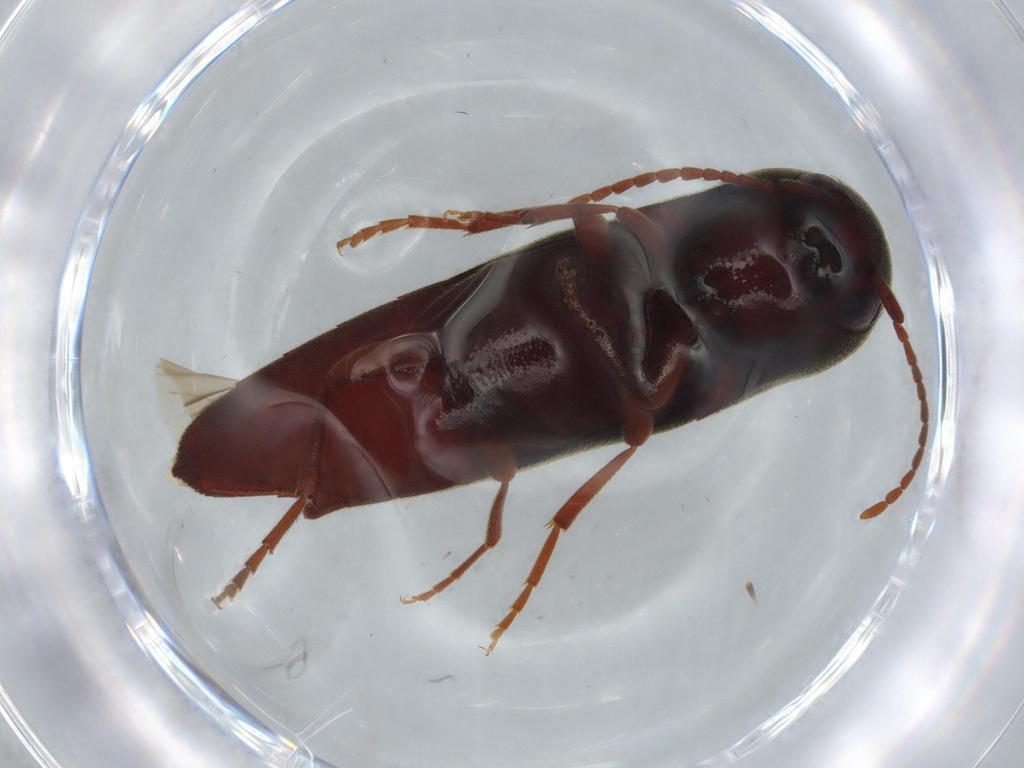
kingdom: Animalia
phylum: Arthropoda
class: Insecta
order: Coleoptera
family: Eucnemidae
